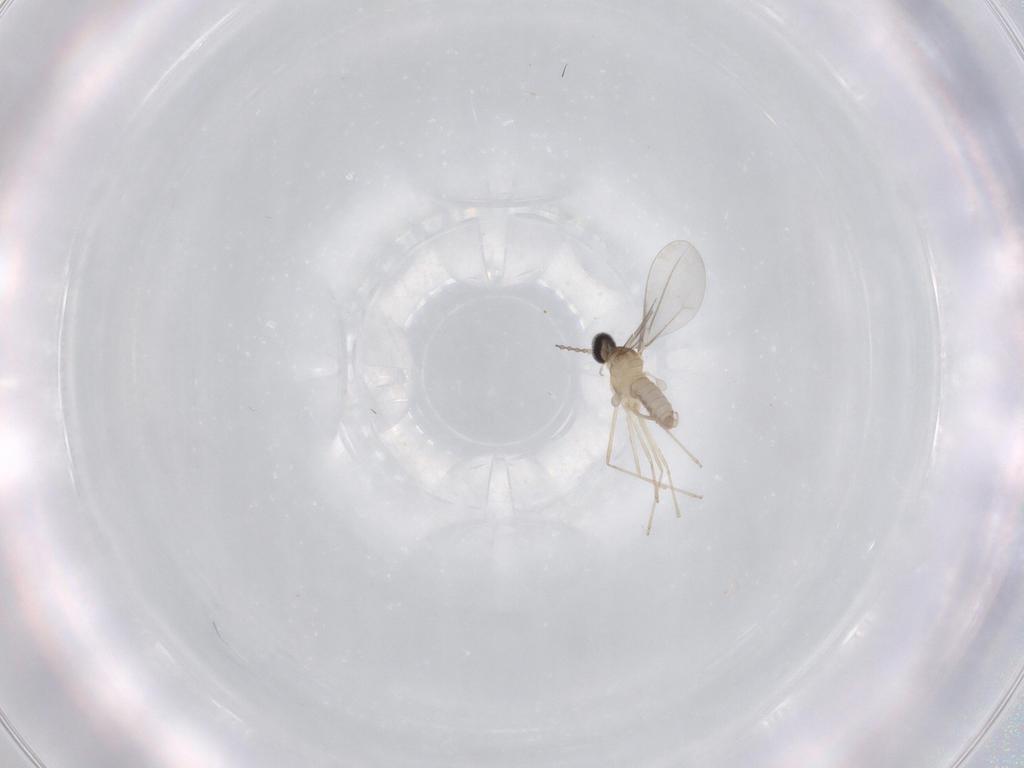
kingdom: Animalia
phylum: Arthropoda
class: Insecta
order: Diptera
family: Cecidomyiidae
